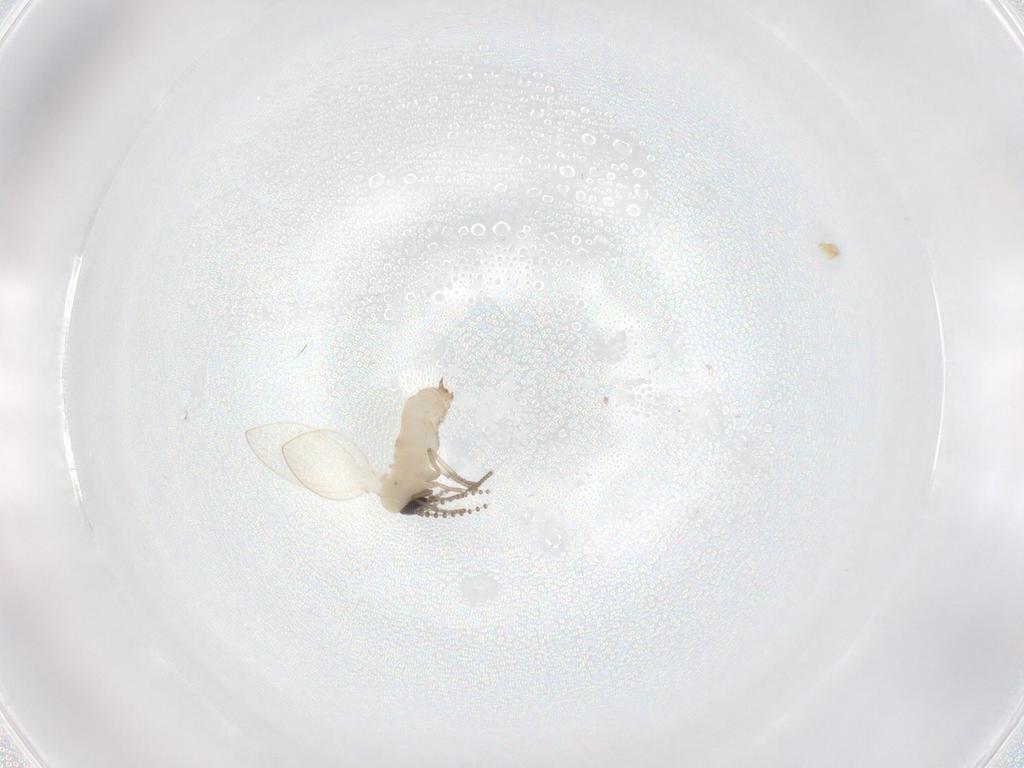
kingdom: Animalia
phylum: Arthropoda
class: Insecta
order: Diptera
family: Psychodidae
